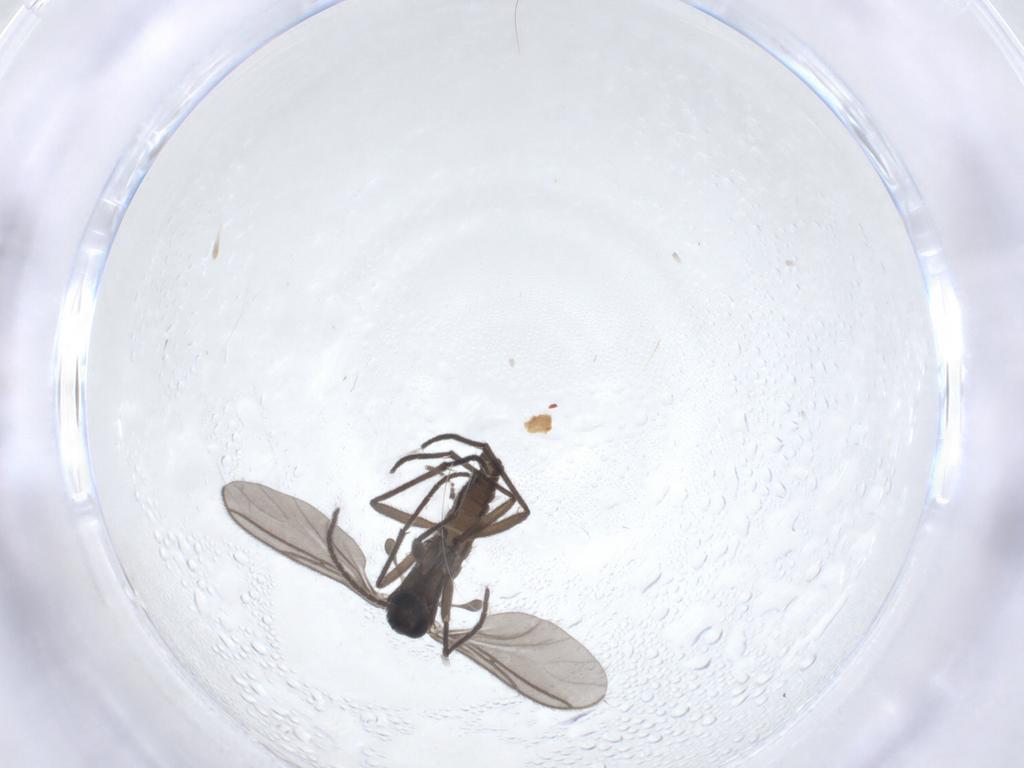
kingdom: Animalia
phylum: Arthropoda
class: Insecta
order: Diptera
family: Sciaridae
